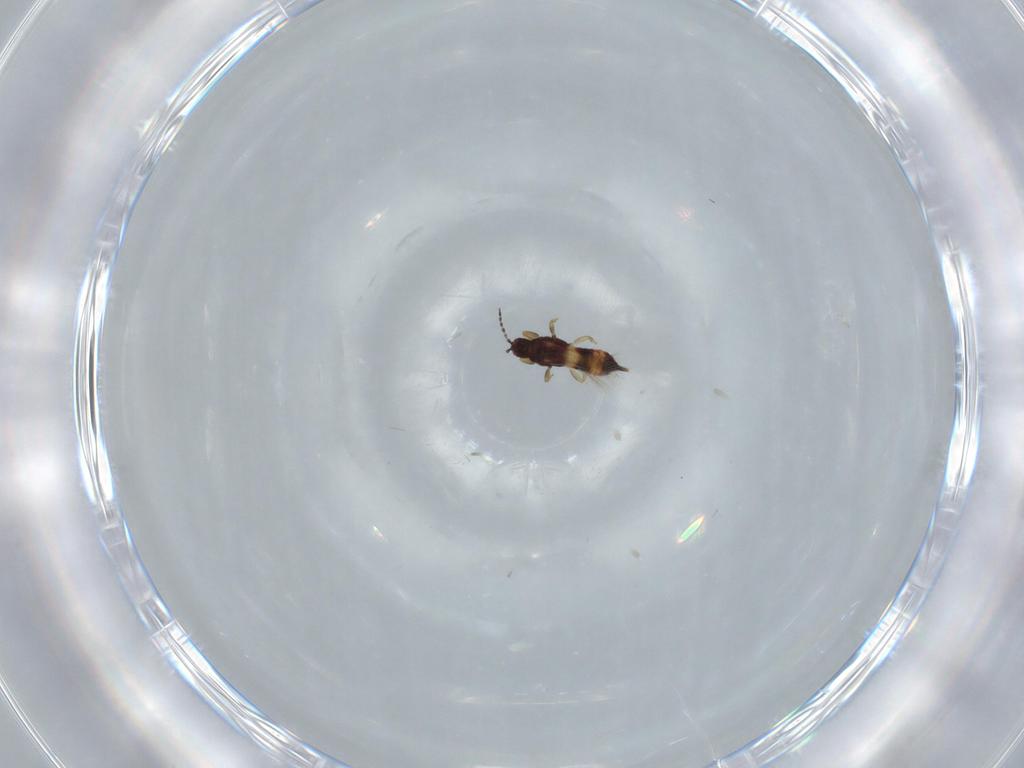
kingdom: Animalia
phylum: Arthropoda
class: Insecta
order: Thysanoptera
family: Phlaeothripidae
